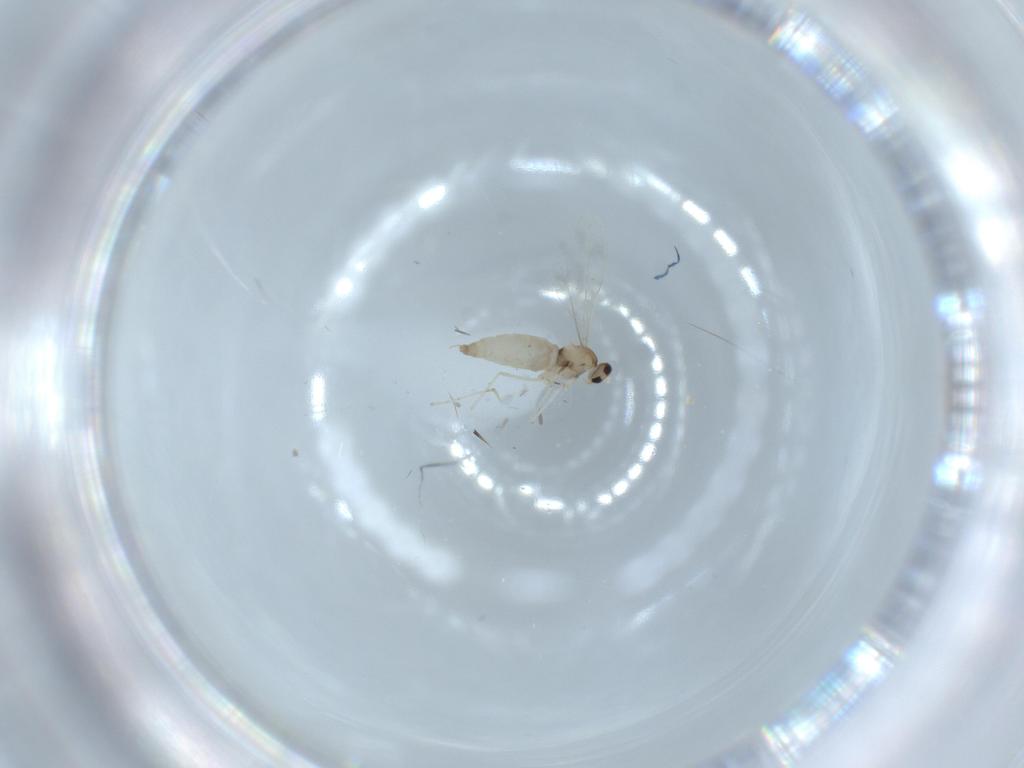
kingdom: Animalia
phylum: Arthropoda
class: Insecta
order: Diptera
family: Cecidomyiidae
